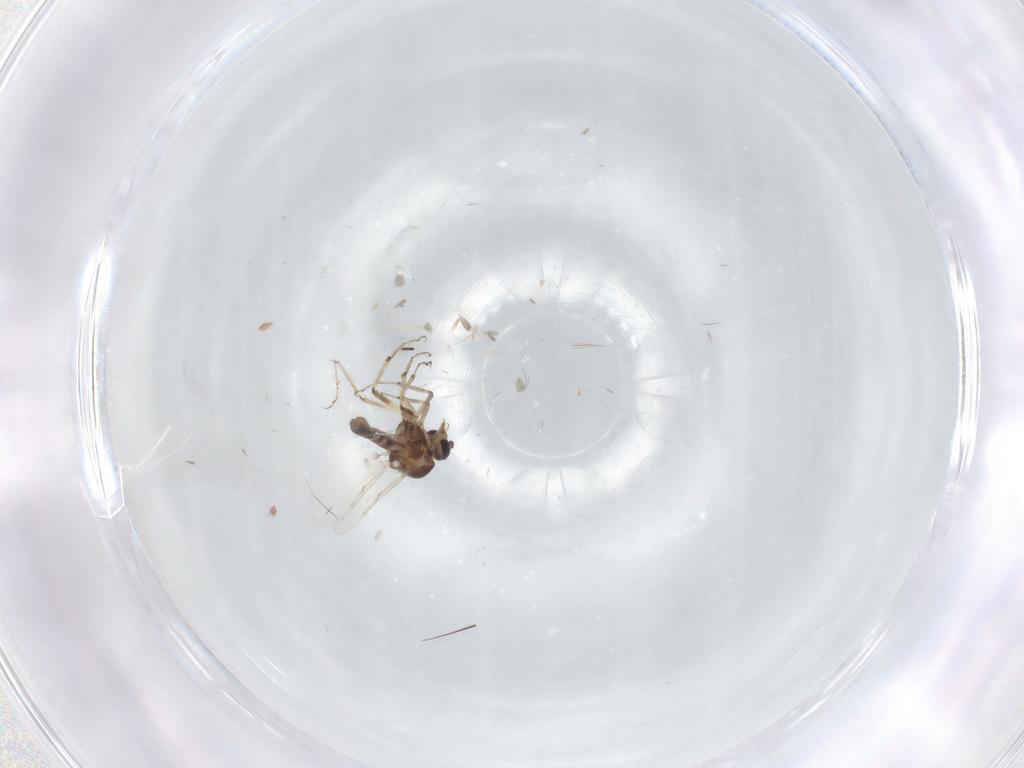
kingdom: Animalia
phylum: Arthropoda
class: Insecta
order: Diptera
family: Ceratopogonidae
